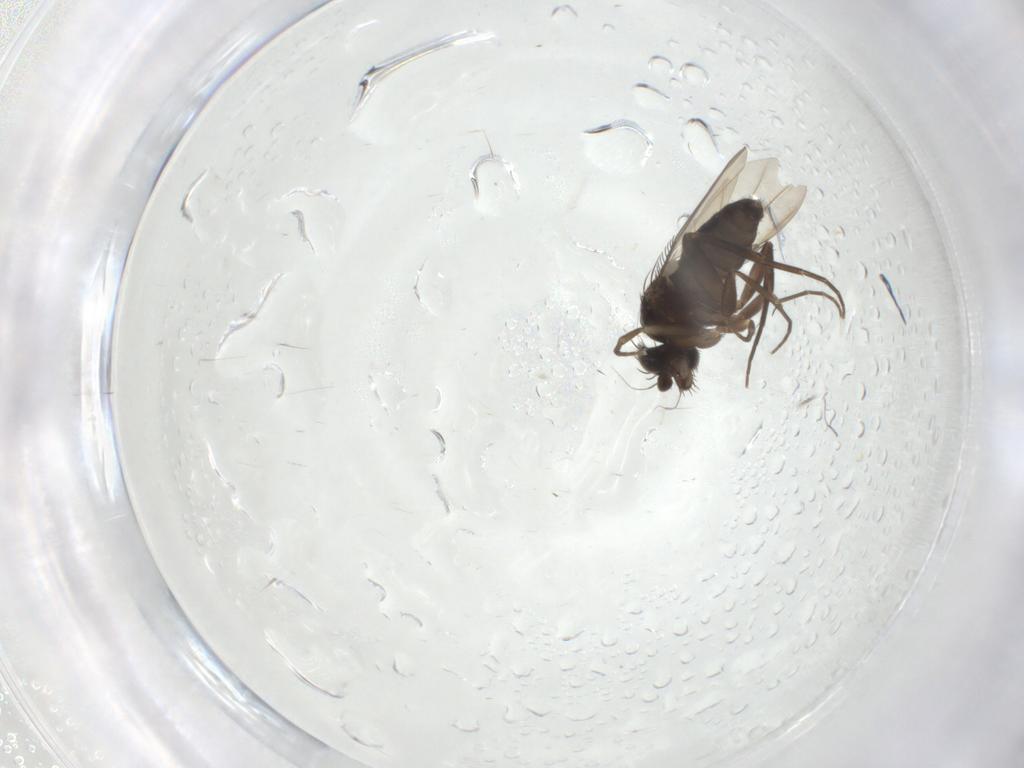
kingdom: Animalia
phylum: Arthropoda
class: Insecta
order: Diptera
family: Phoridae
